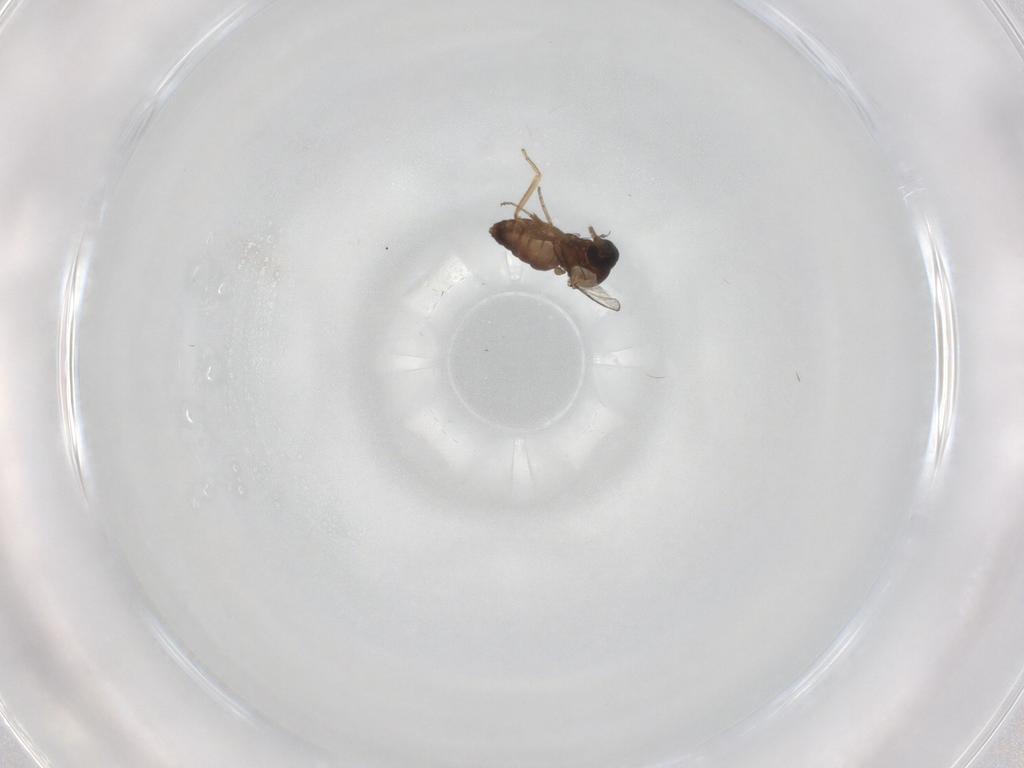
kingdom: Animalia
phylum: Arthropoda
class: Insecta
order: Diptera
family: Ceratopogonidae
